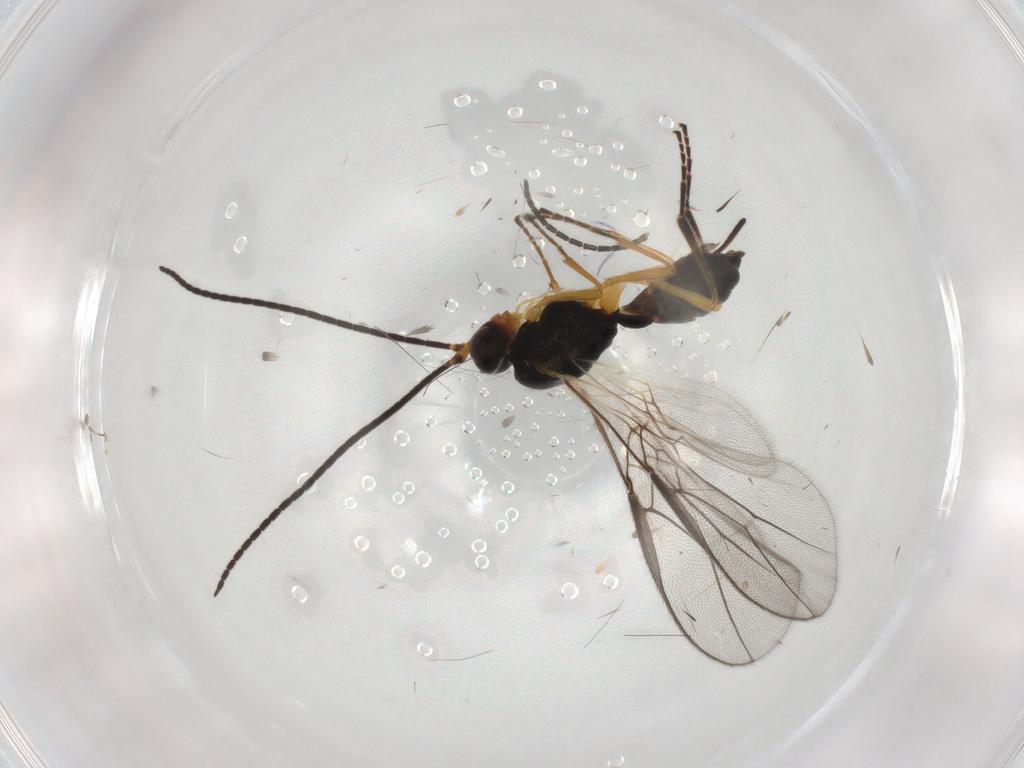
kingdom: Animalia
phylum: Arthropoda
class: Insecta
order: Hymenoptera
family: Braconidae
